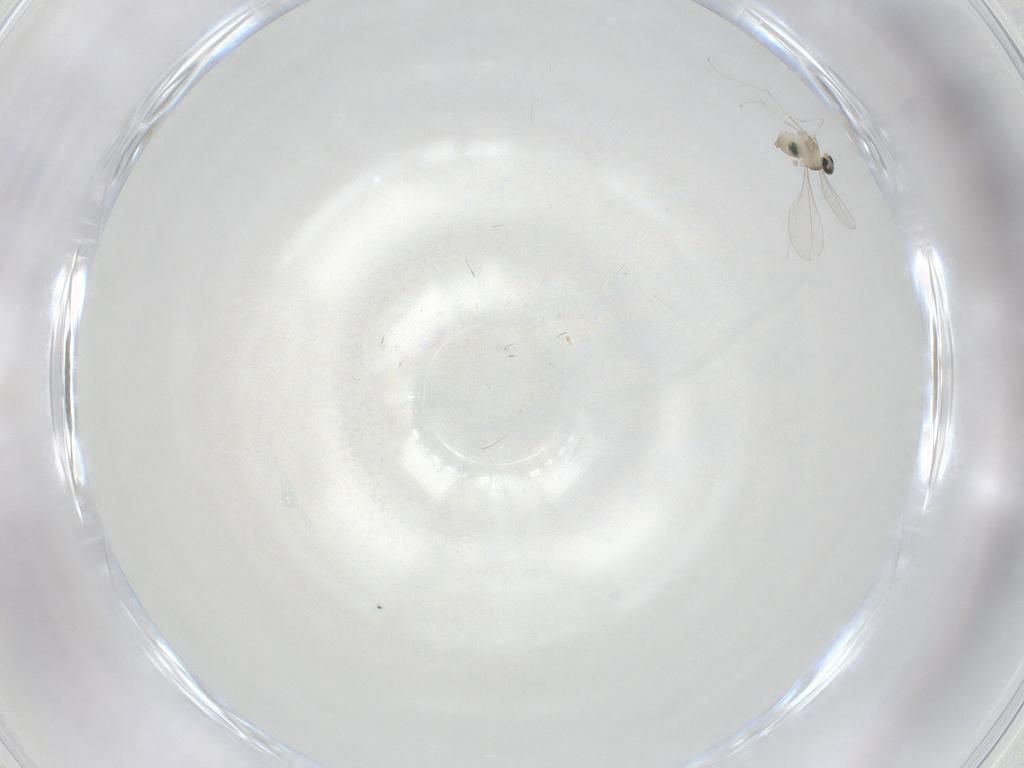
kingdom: Animalia
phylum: Arthropoda
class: Insecta
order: Diptera
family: Cecidomyiidae
